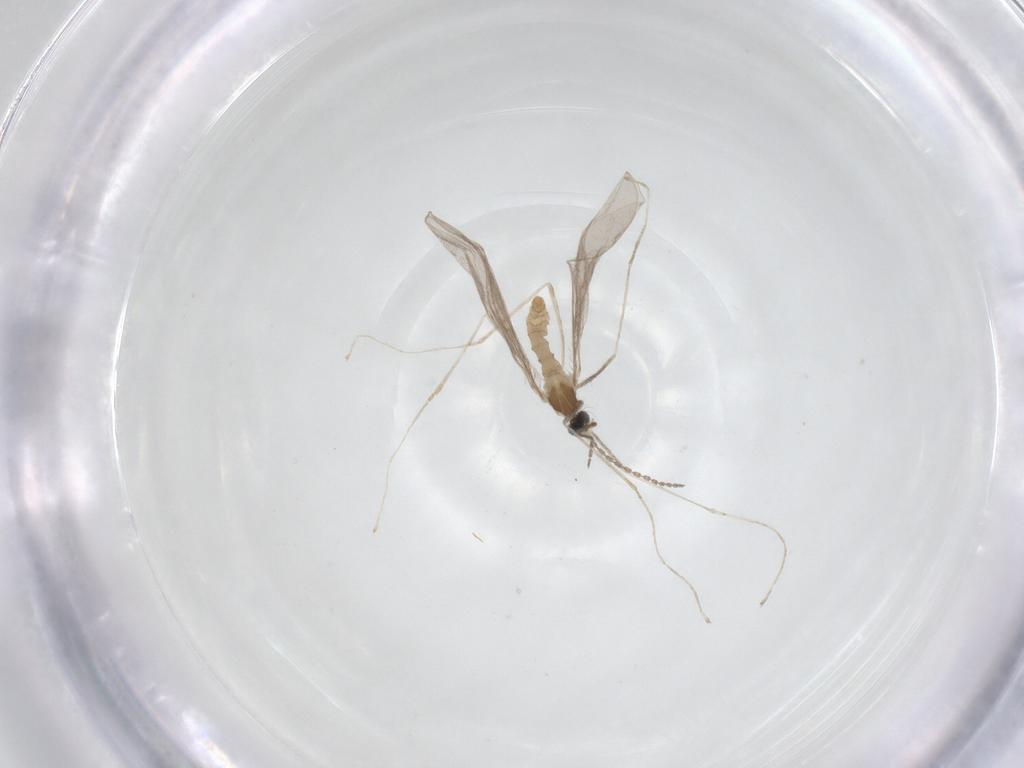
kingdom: Animalia
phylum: Arthropoda
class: Insecta
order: Diptera
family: Cecidomyiidae
